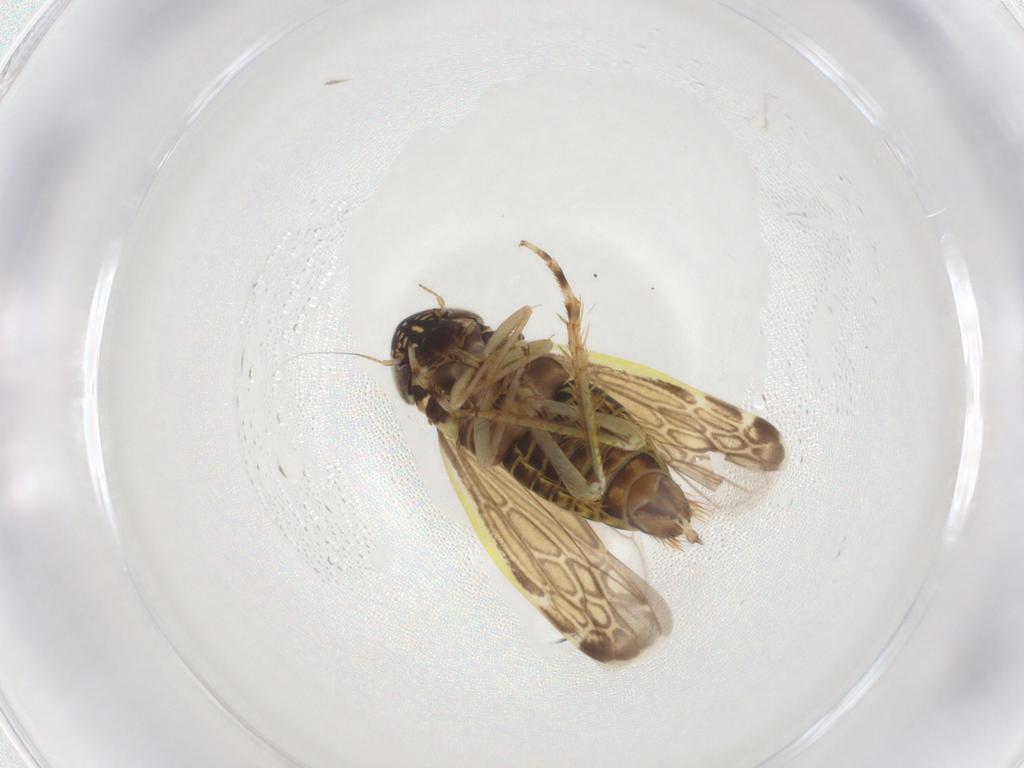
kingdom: Animalia
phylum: Arthropoda
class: Insecta
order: Hemiptera
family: Cicadellidae
